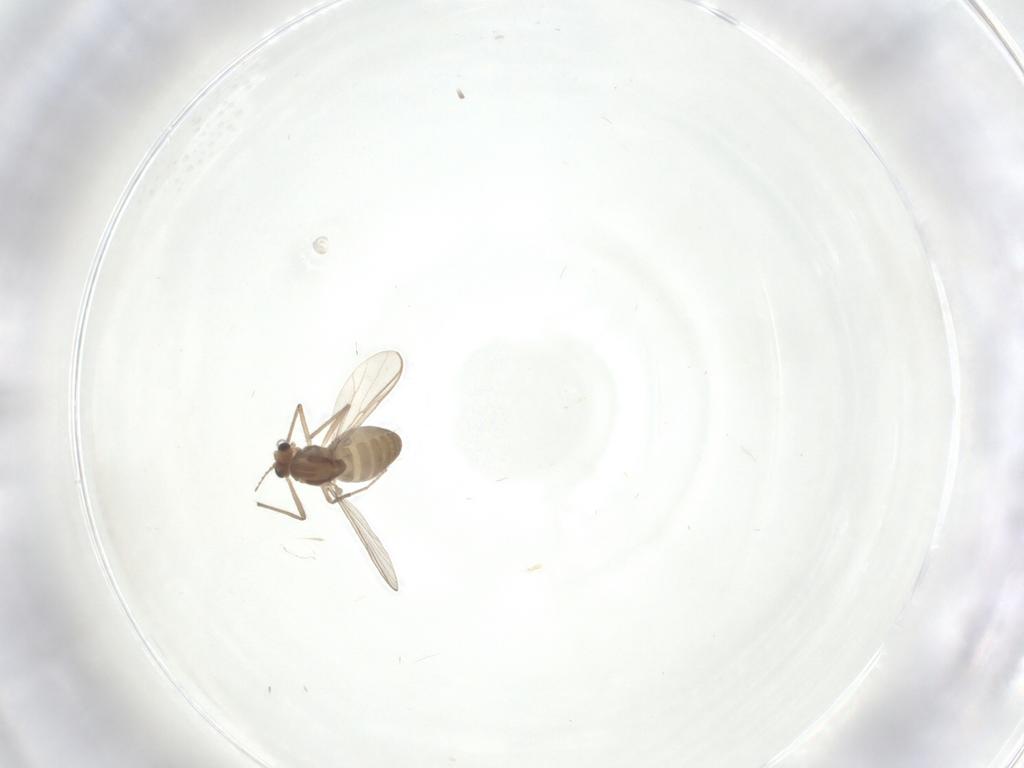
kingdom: Animalia
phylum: Arthropoda
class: Insecta
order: Diptera
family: Chironomidae
